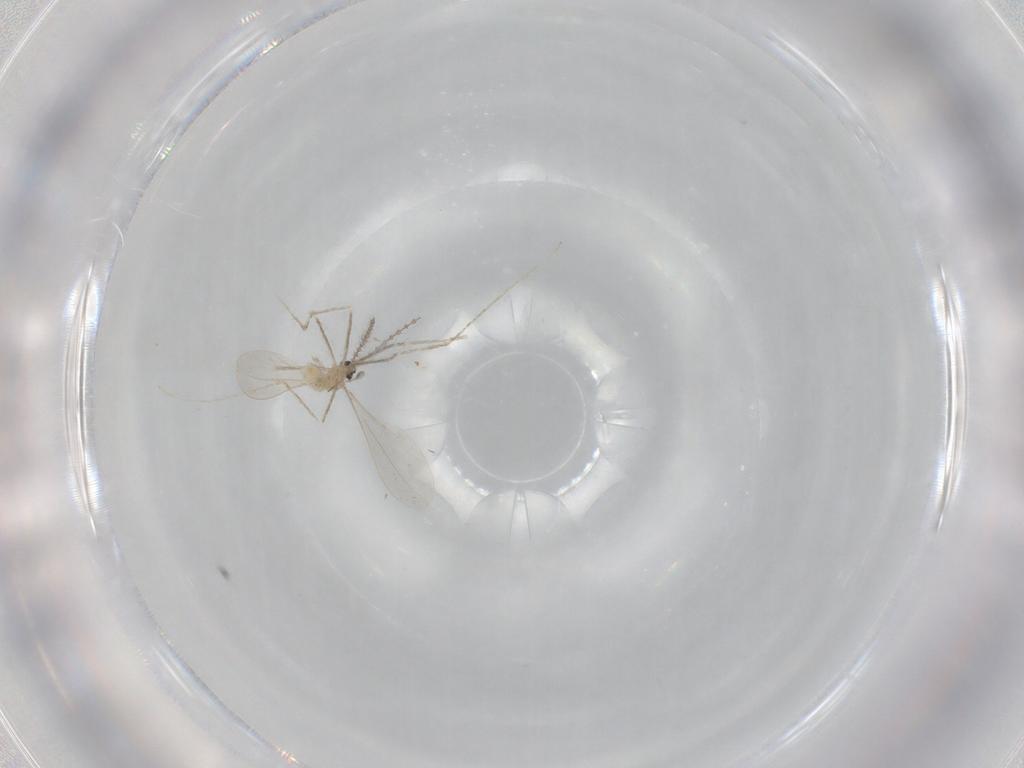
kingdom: Animalia
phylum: Arthropoda
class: Insecta
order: Diptera
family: Cecidomyiidae
